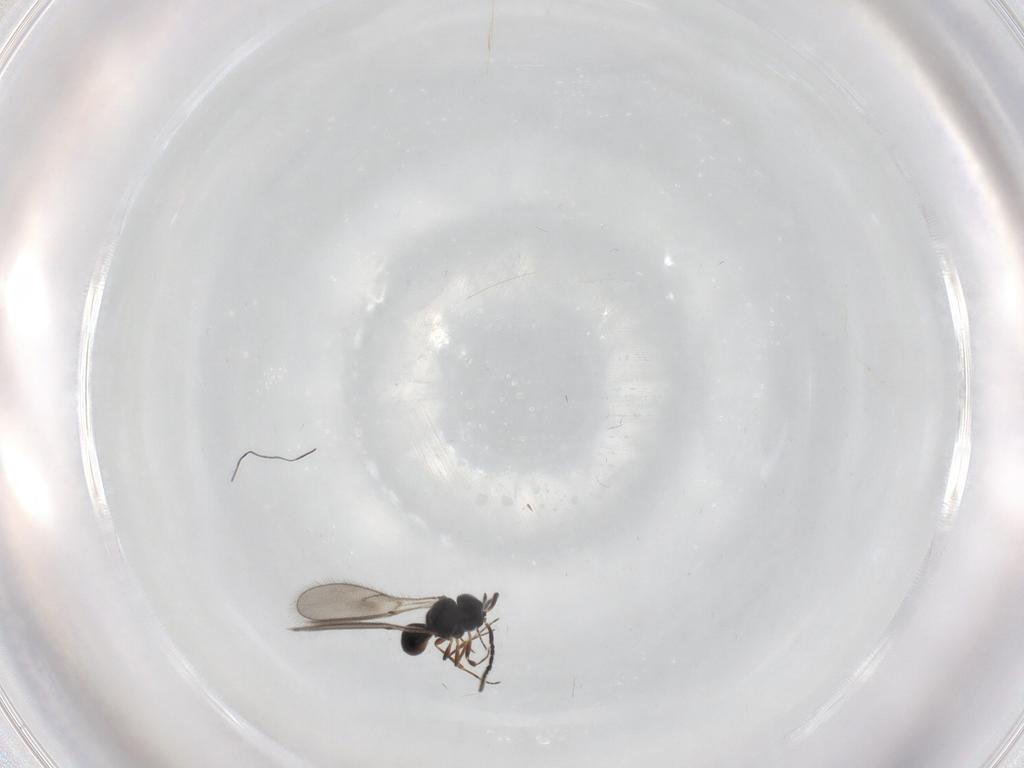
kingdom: Animalia
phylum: Arthropoda
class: Insecta
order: Hymenoptera
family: Scelionidae
